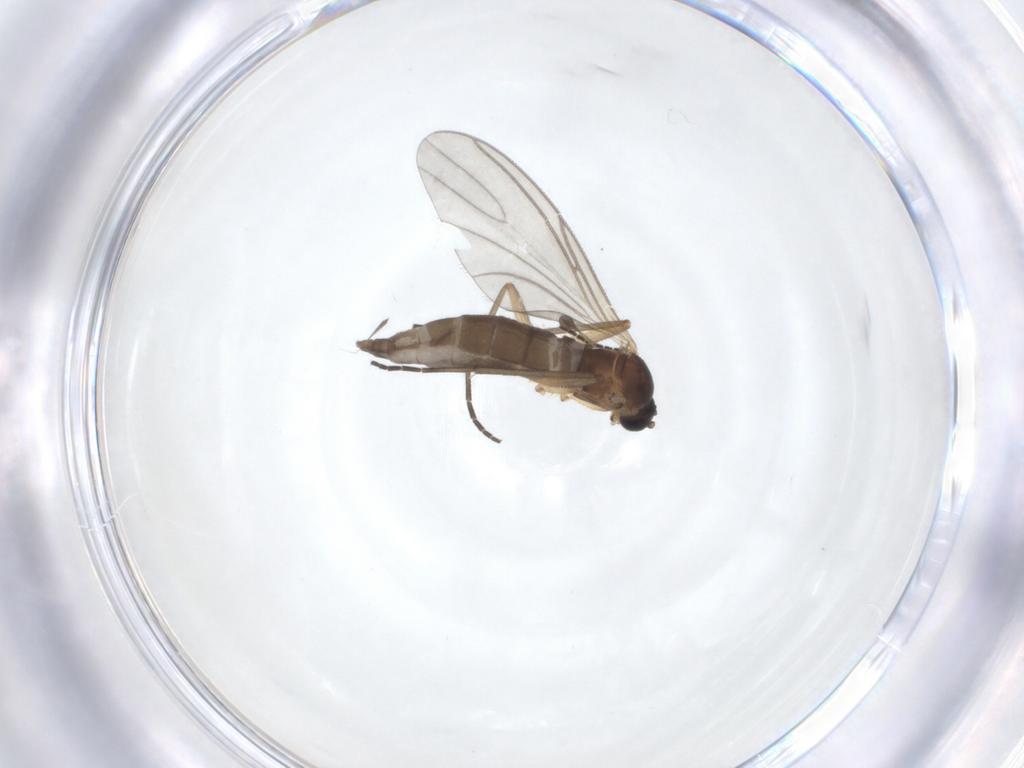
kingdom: Animalia
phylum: Arthropoda
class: Insecta
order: Diptera
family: Sciaridae
